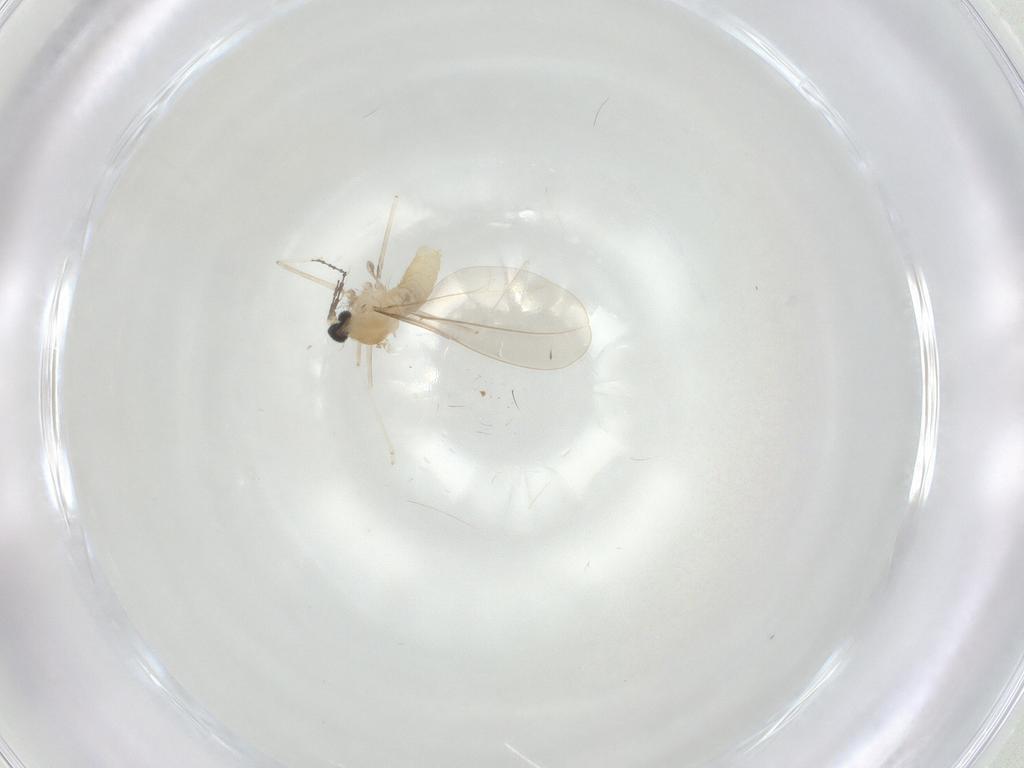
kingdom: Animalia
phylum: Arthropoda
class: Insecta
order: Diptera
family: Cecidomyiidae
